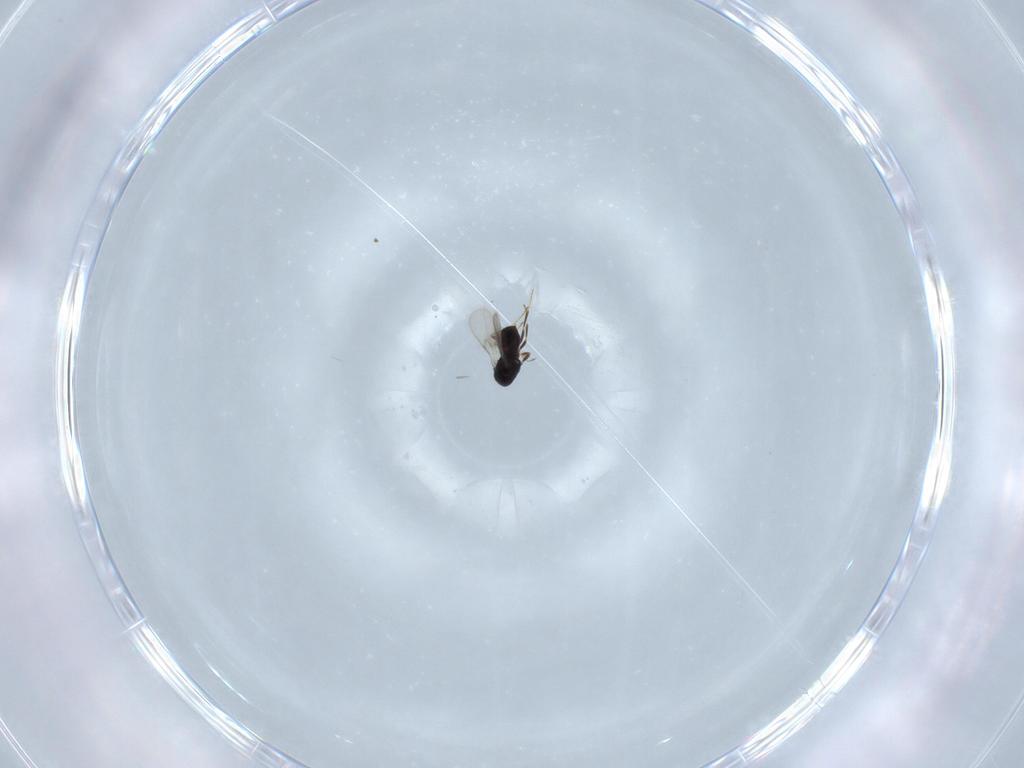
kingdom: Animalia
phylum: Arthropoda
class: Insecta
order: Hymenoptera
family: Scelionidae
